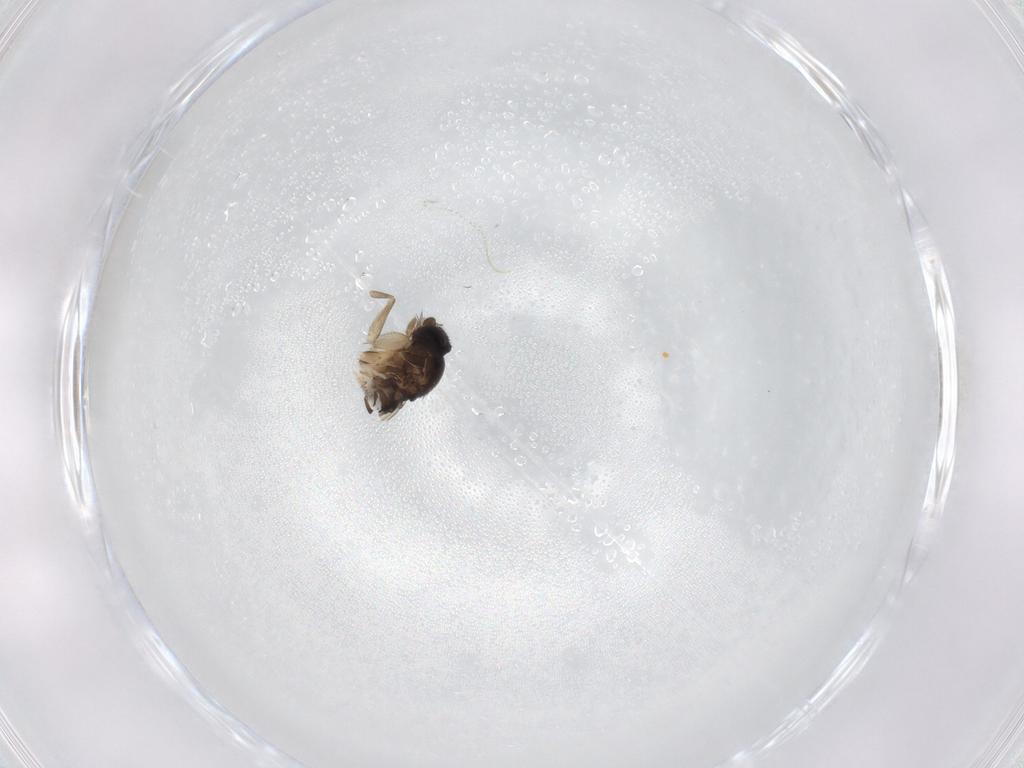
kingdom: Animalia
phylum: Arthropoda
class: Insecta
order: Diptera
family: Phoridae
